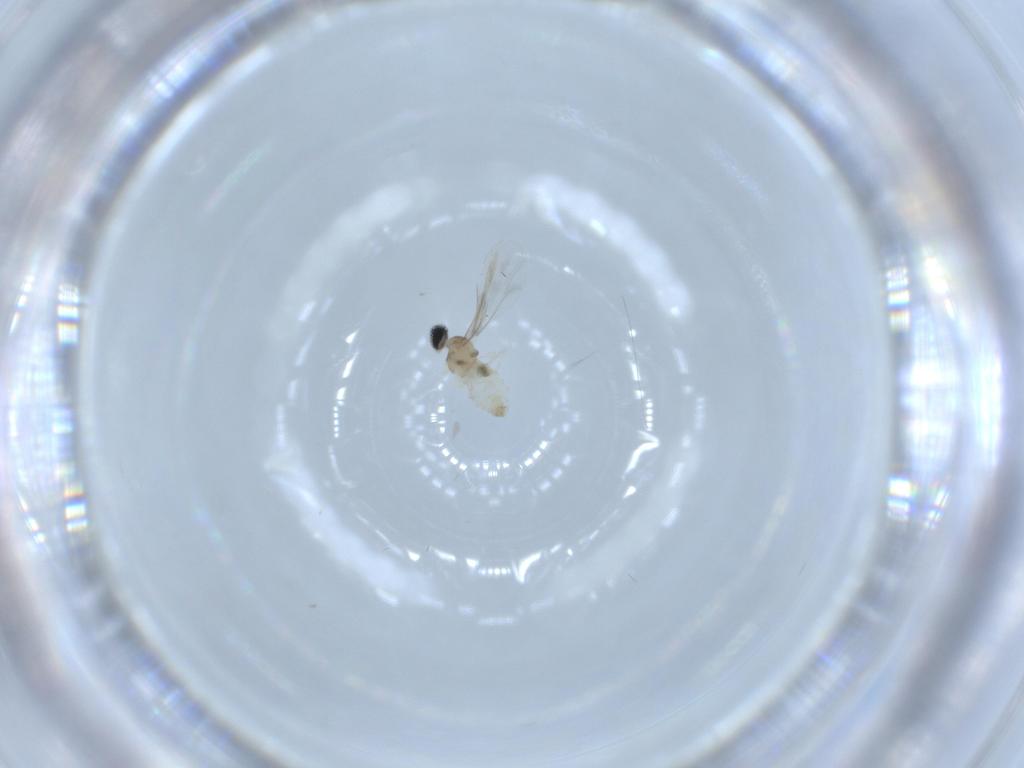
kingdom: Animalia
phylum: Arthropoda
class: Insecta
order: Diptera
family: Cecidomyiidae
